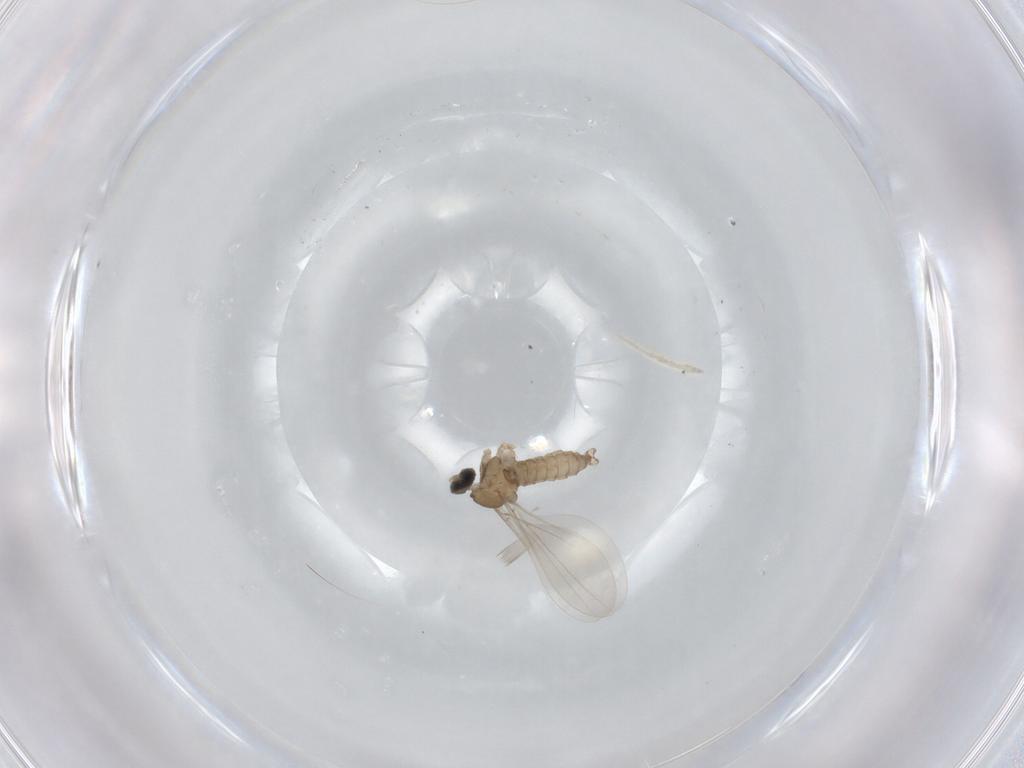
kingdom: Animalia
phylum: Arthropoda
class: Insecta
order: Diptera
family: Cecidomyiidae
